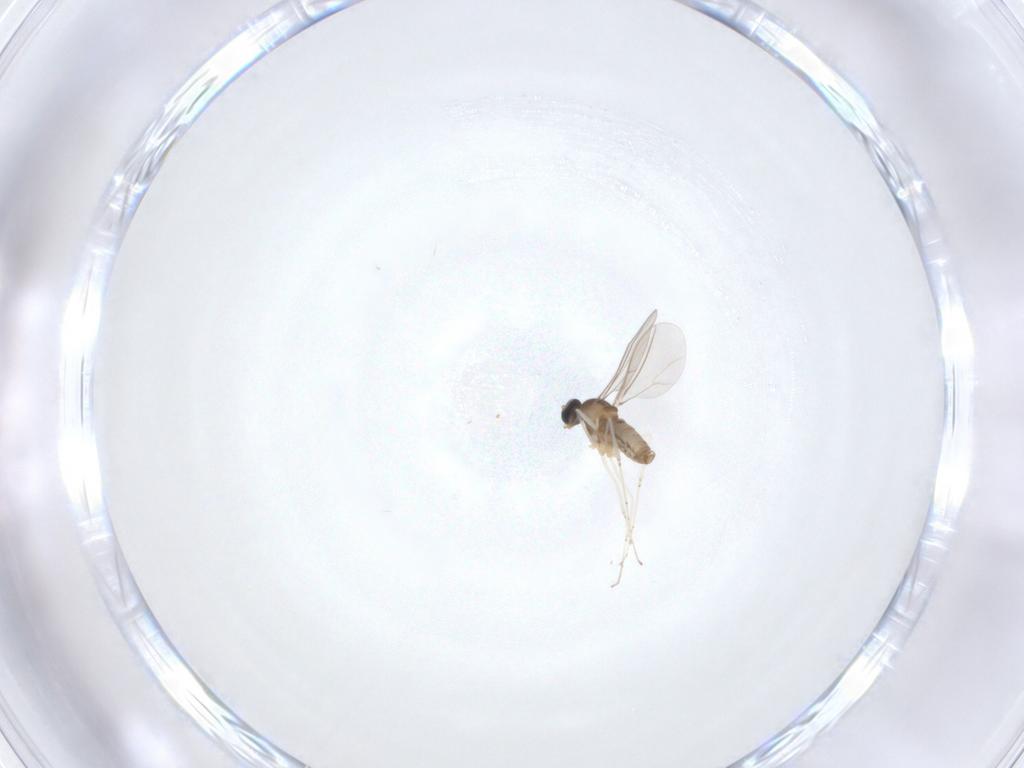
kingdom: Animalia
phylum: Arthropoda
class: Insecta
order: Diptera
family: Cecidomyiidae
